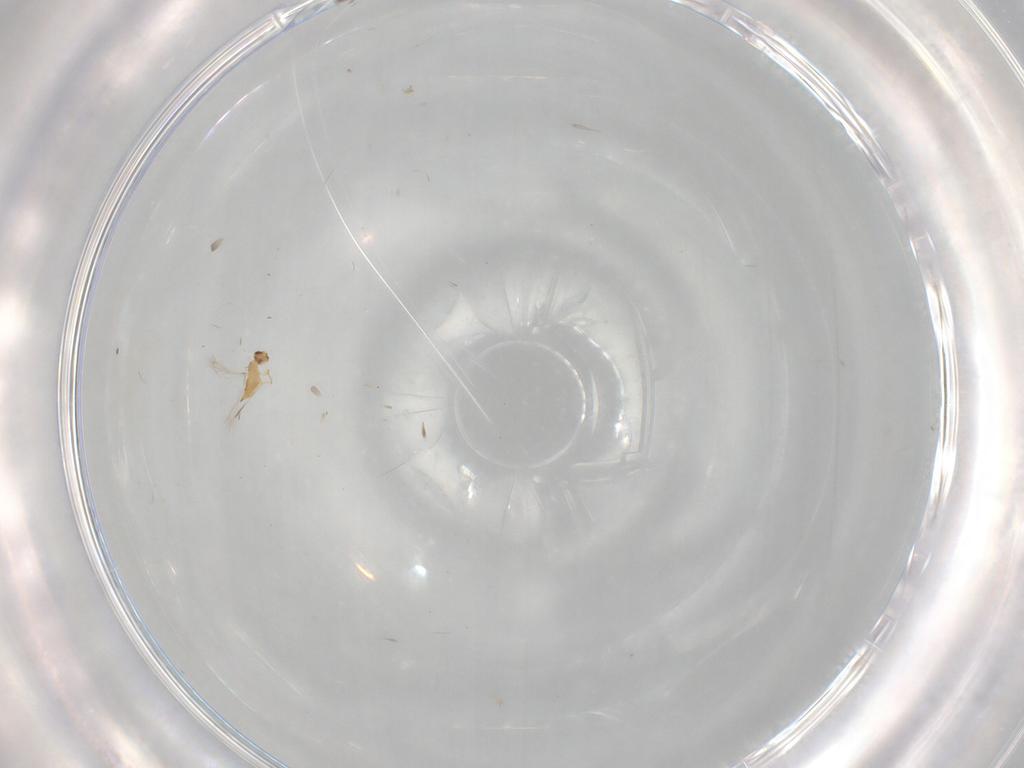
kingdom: Animalia
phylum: Arthropoda
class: Insecta
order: Hymenoptera
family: Mymaridae
